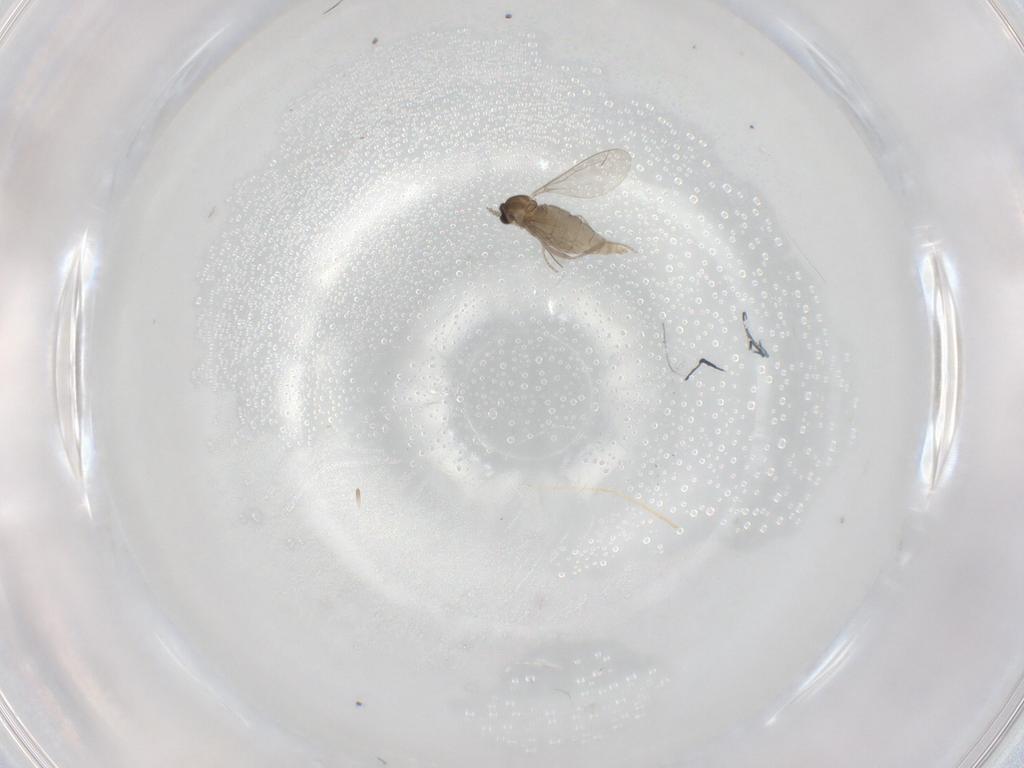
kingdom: Animalia
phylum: Arthropoda
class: Insecta
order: Diptera
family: Cecidomyiidae
